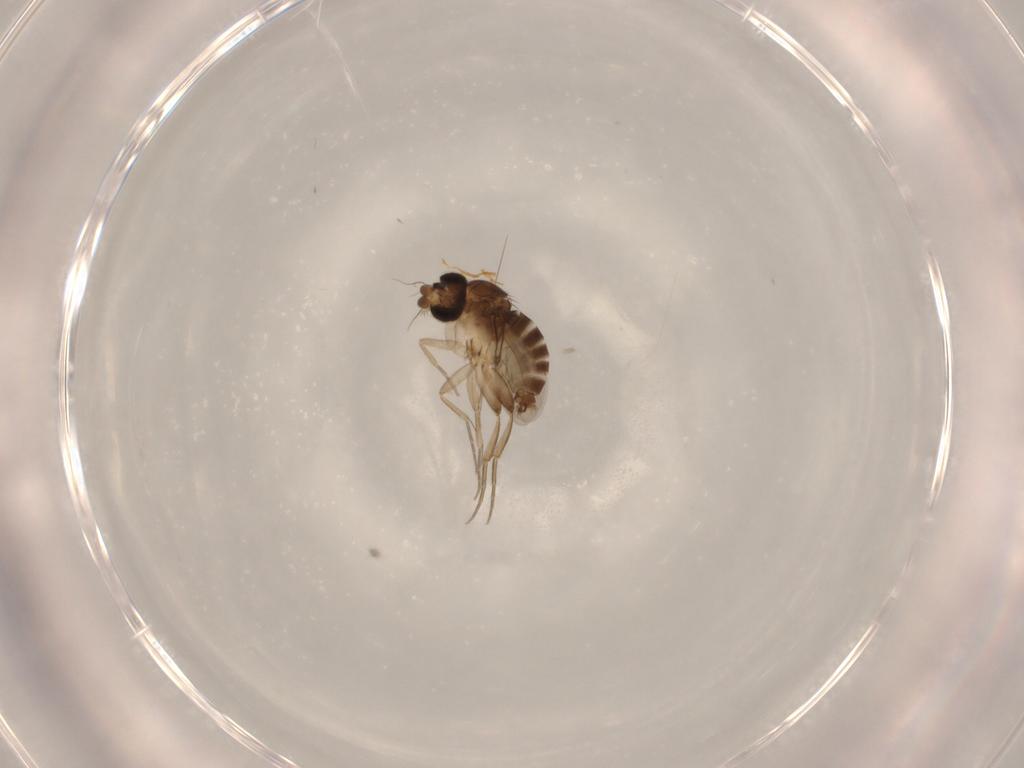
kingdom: Animalia
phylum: Arthropoda
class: Insecta
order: Diptera
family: Phoridae
